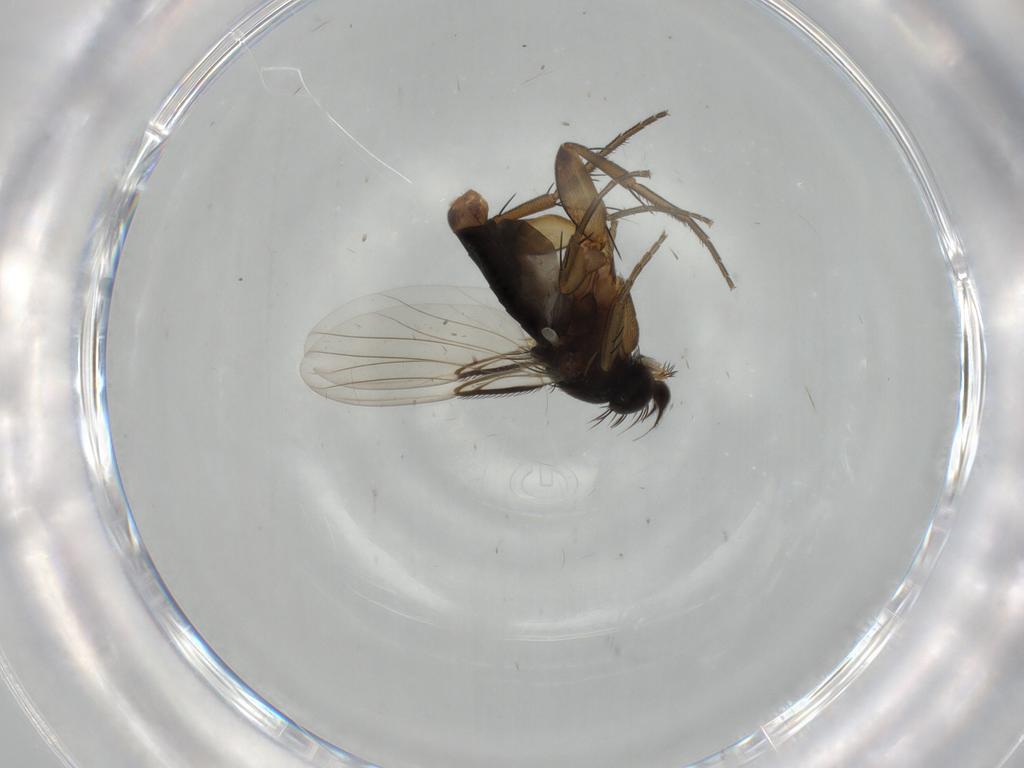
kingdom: Animalia
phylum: Arthropoda
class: Insecta
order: Diptera
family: Phoridae
